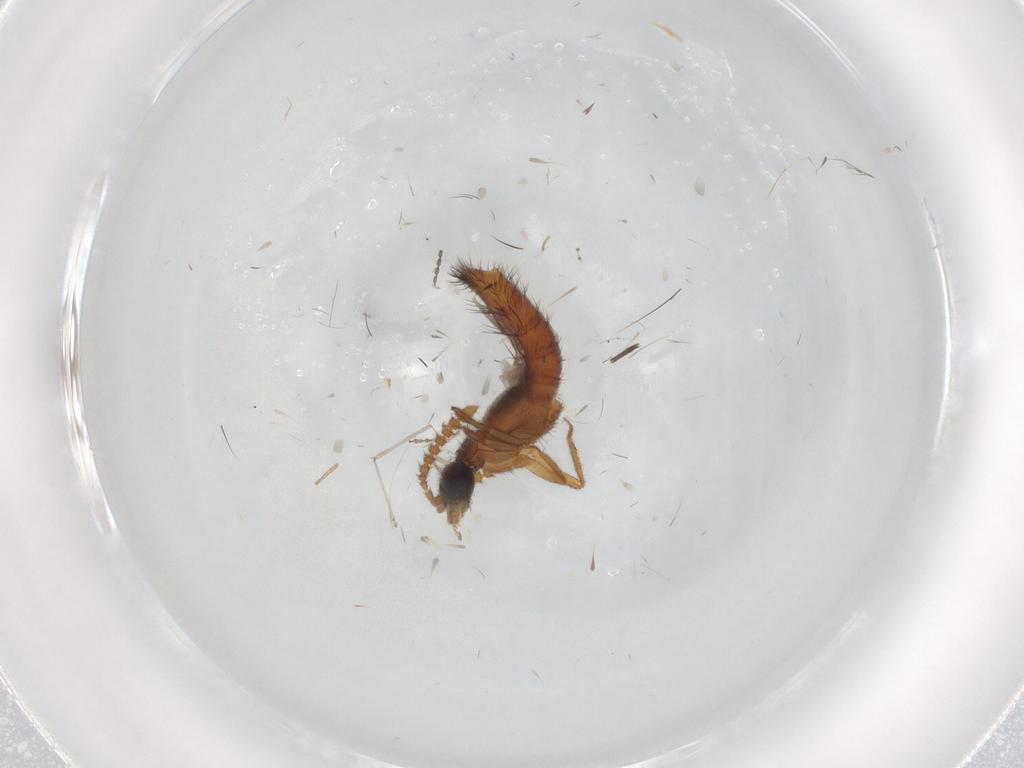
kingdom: Animalia
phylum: Arthropoda
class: Insecta
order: Coleoptera
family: Staphylinidae
